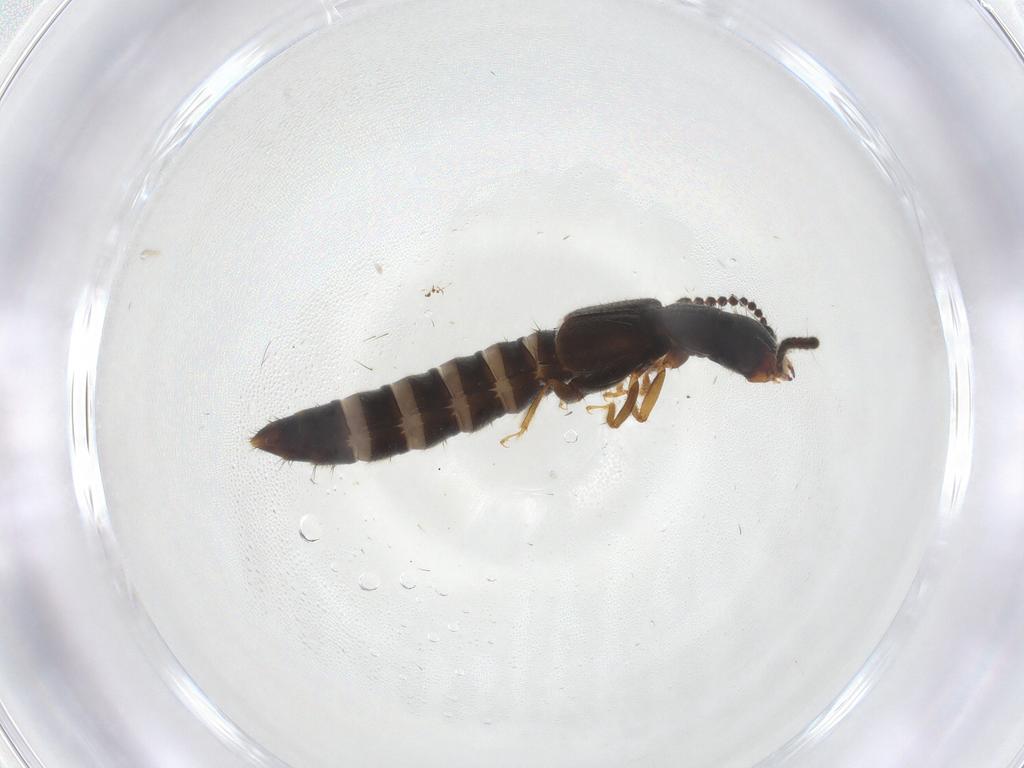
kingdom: Animalia
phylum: Arthropoda
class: Insecta
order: Coleoptera
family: Staphylinidae
